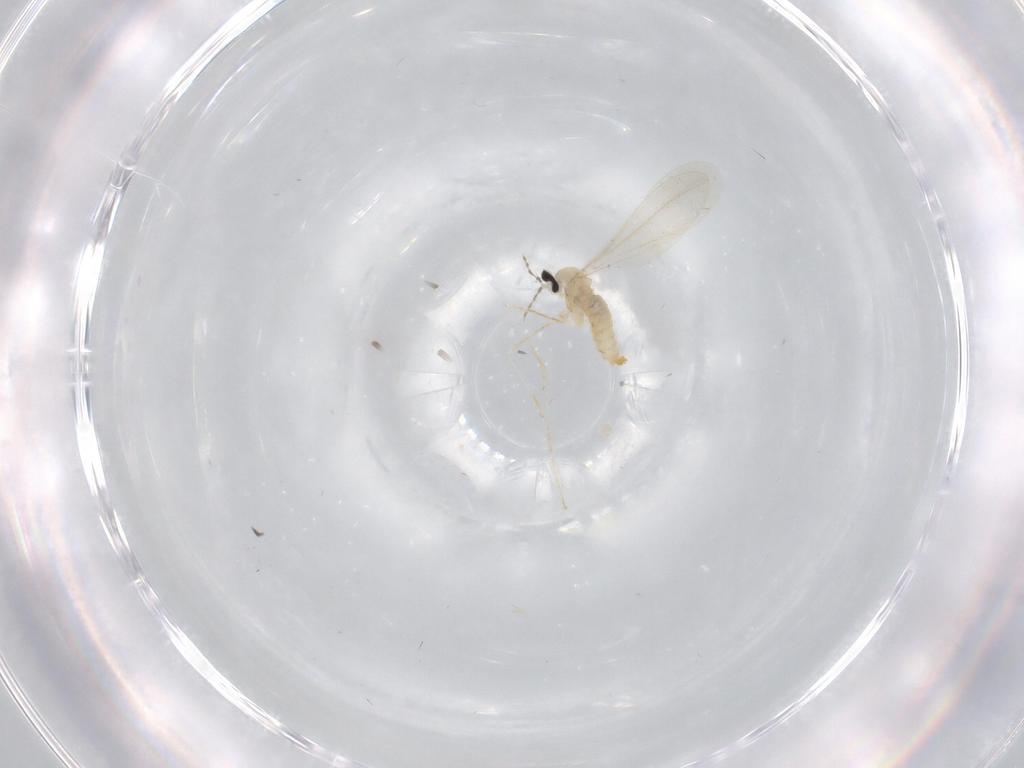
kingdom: Animalia
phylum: Arthropoda
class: Insecta
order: Diptera
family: Cecidomyiidae
